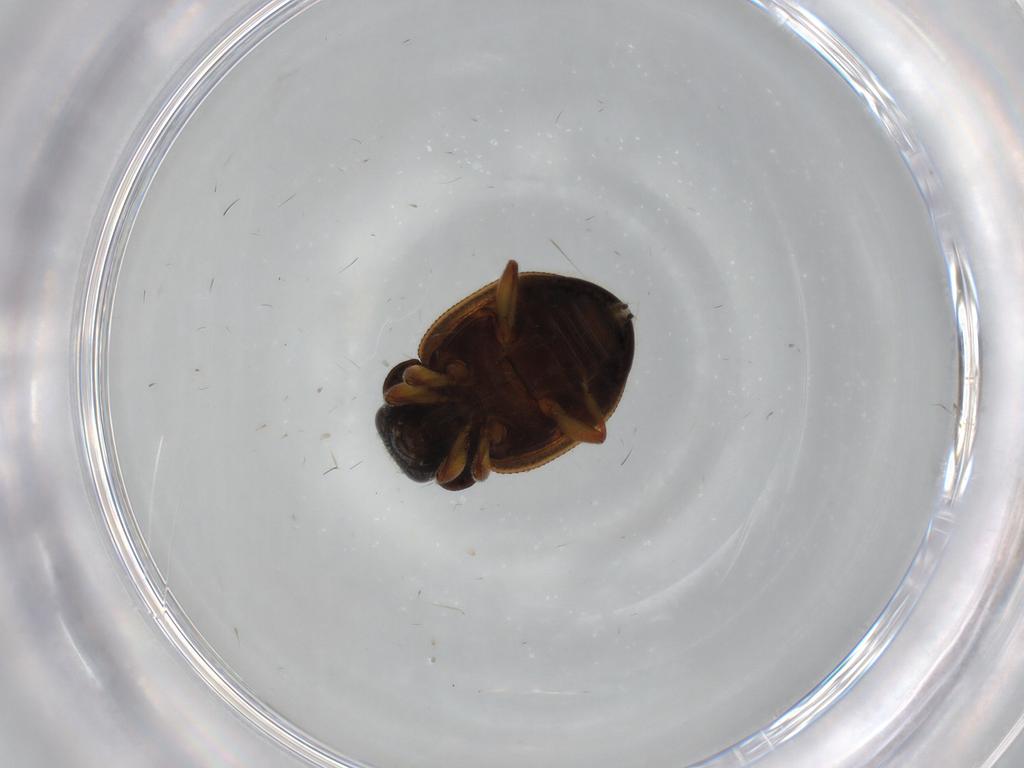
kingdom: Animalia
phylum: Arthropoda
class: Insecta
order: Coleoptera
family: Coccinellidae
